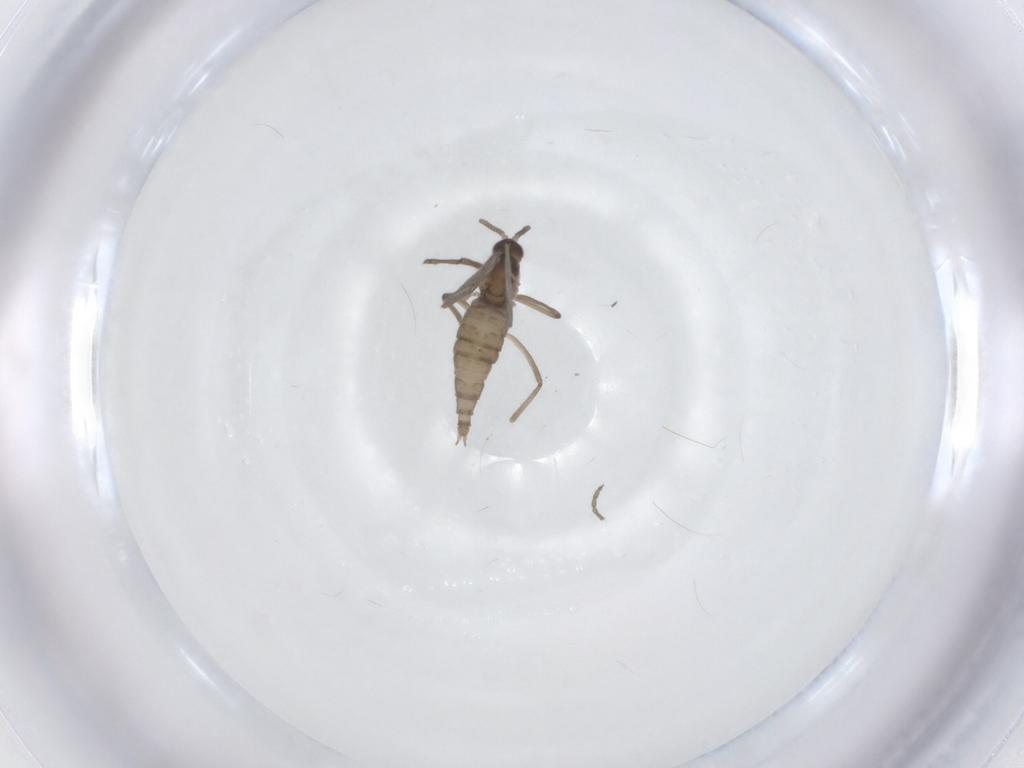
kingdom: Animalia
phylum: Arthropoda
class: Insecta
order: Diptera
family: Cecidomyiidae
